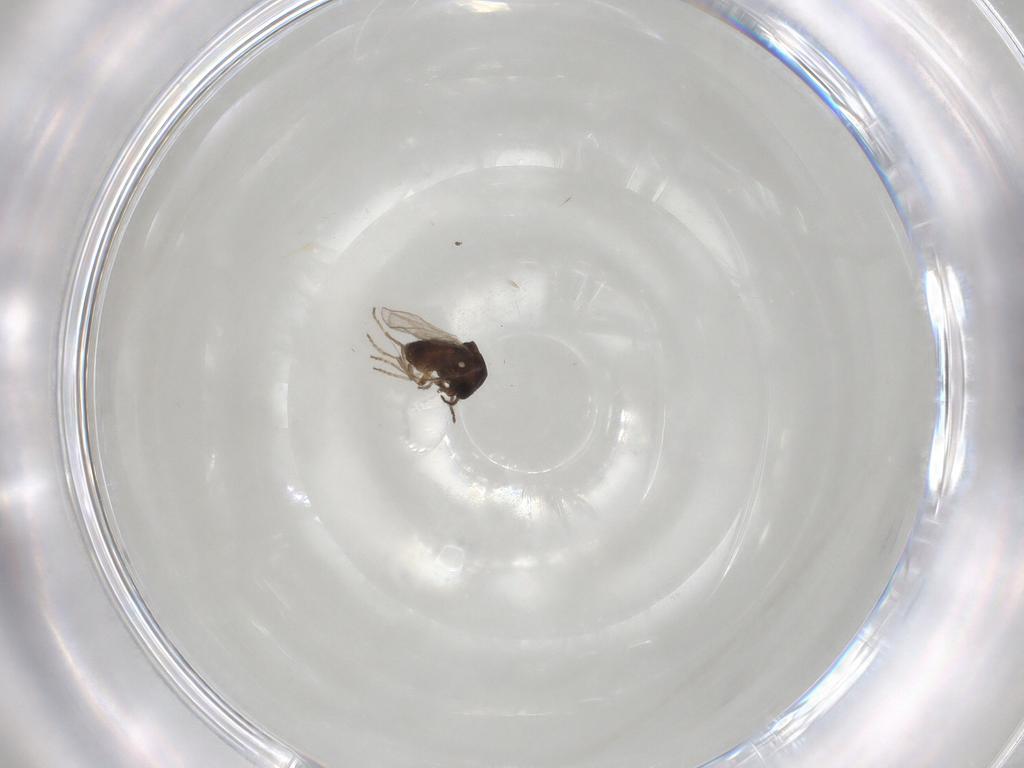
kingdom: Animalia
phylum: Arthropoda
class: Insecta
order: Diptera
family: Ceratopogonidae
